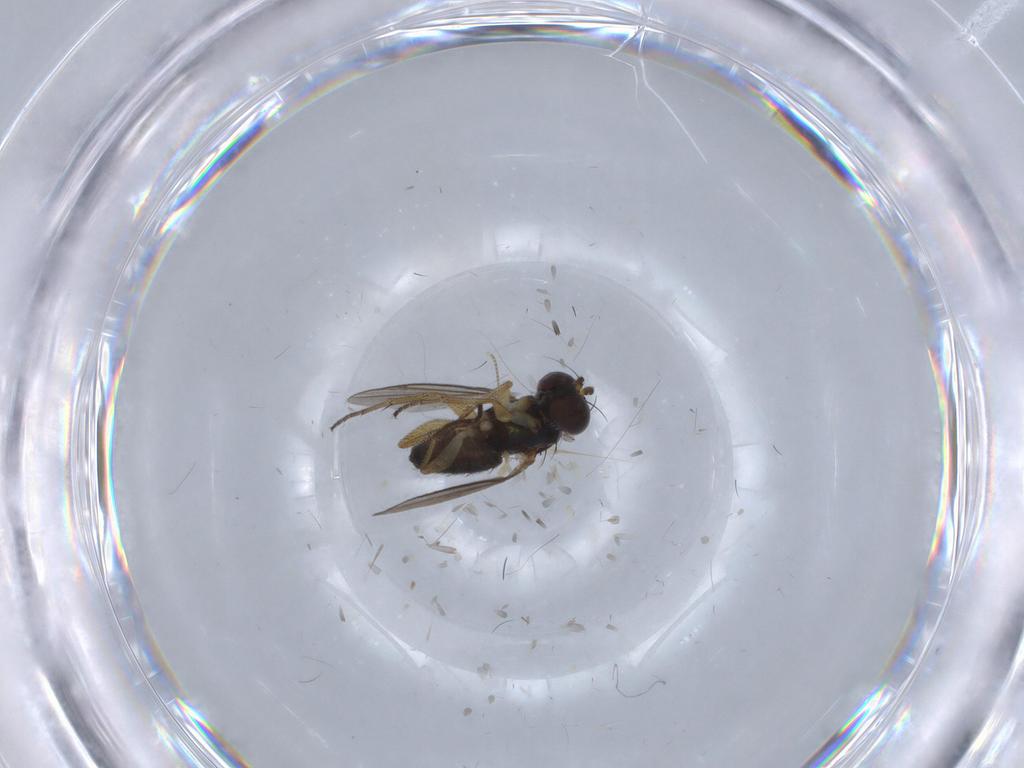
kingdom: Animalia
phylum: Arthropoda
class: Insecta
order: Diptera
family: Dolichopodidae
